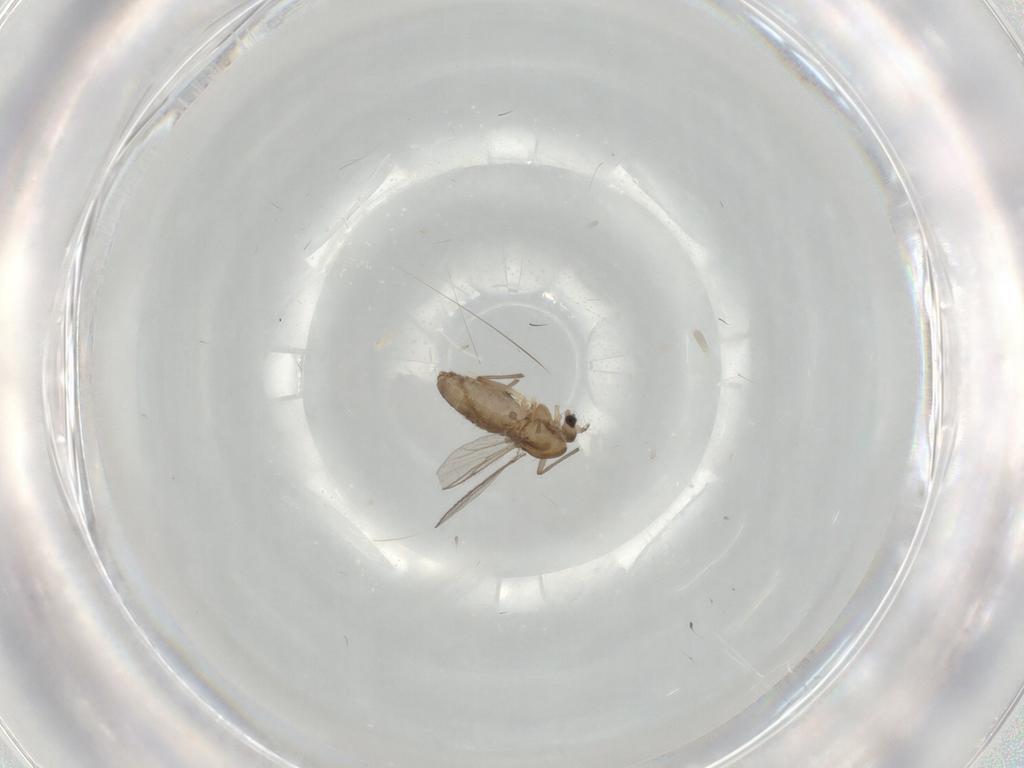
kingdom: Animalia
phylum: Arthropoda
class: Insecta
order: Diptera
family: Chironomidae
